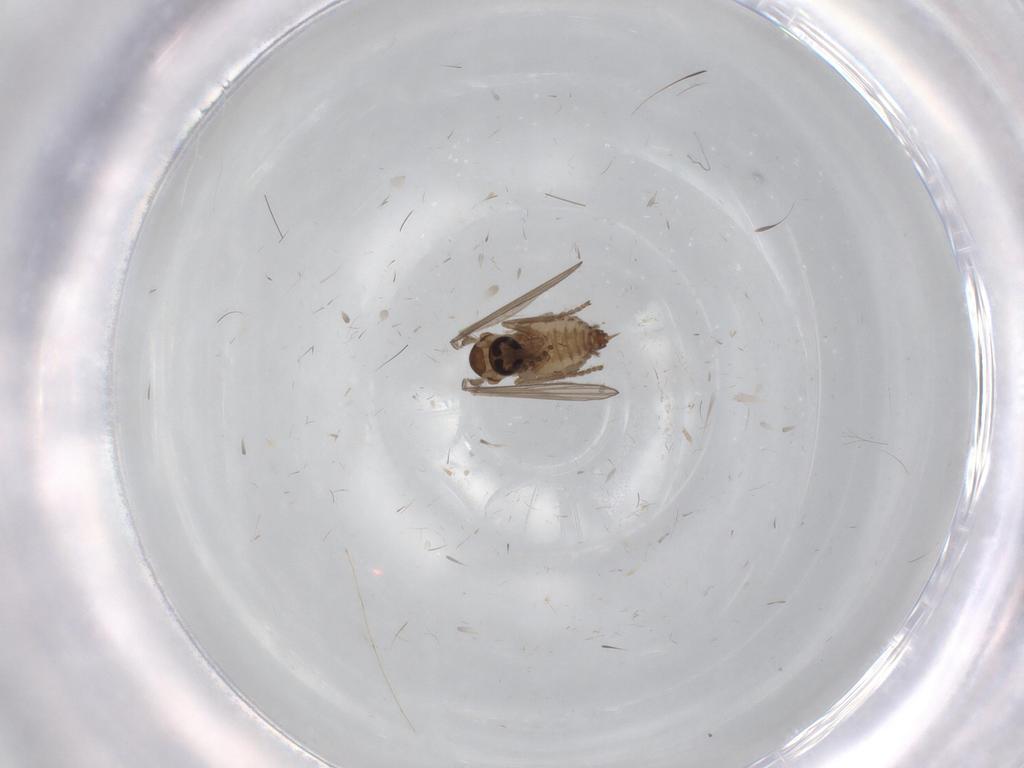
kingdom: Animalia
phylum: Arthropoda
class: Insecta
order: Diptera
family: Psychodidae
